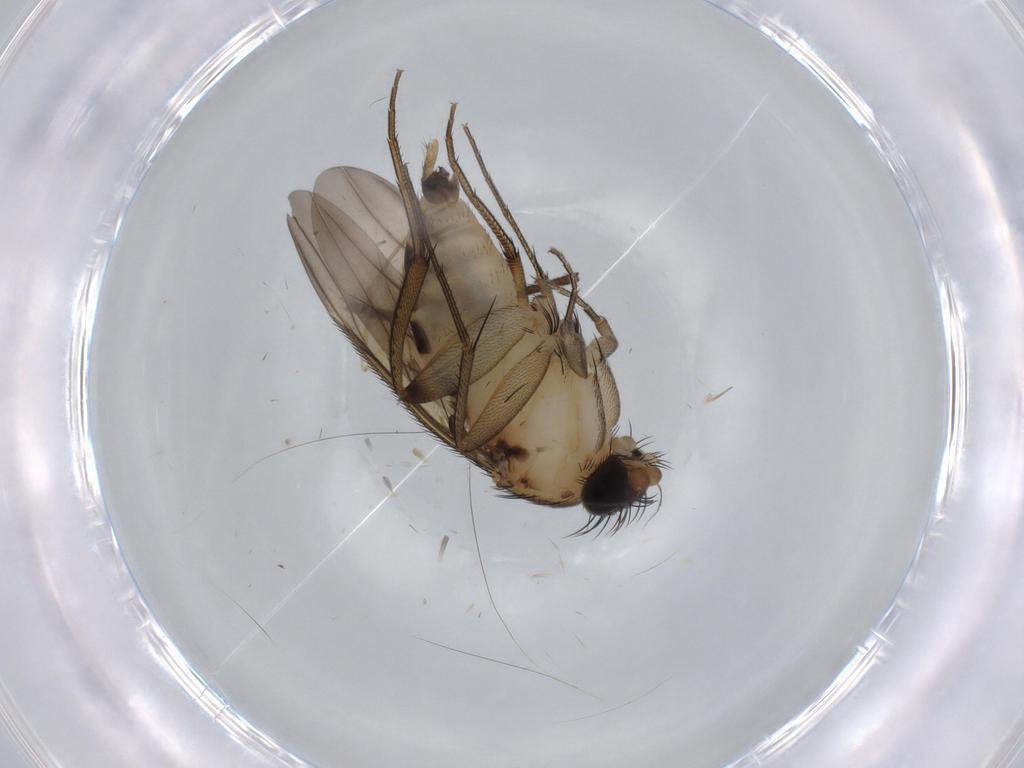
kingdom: Animalia
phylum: Arthropoda
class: Insecta
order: Diptera
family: Phoridae
